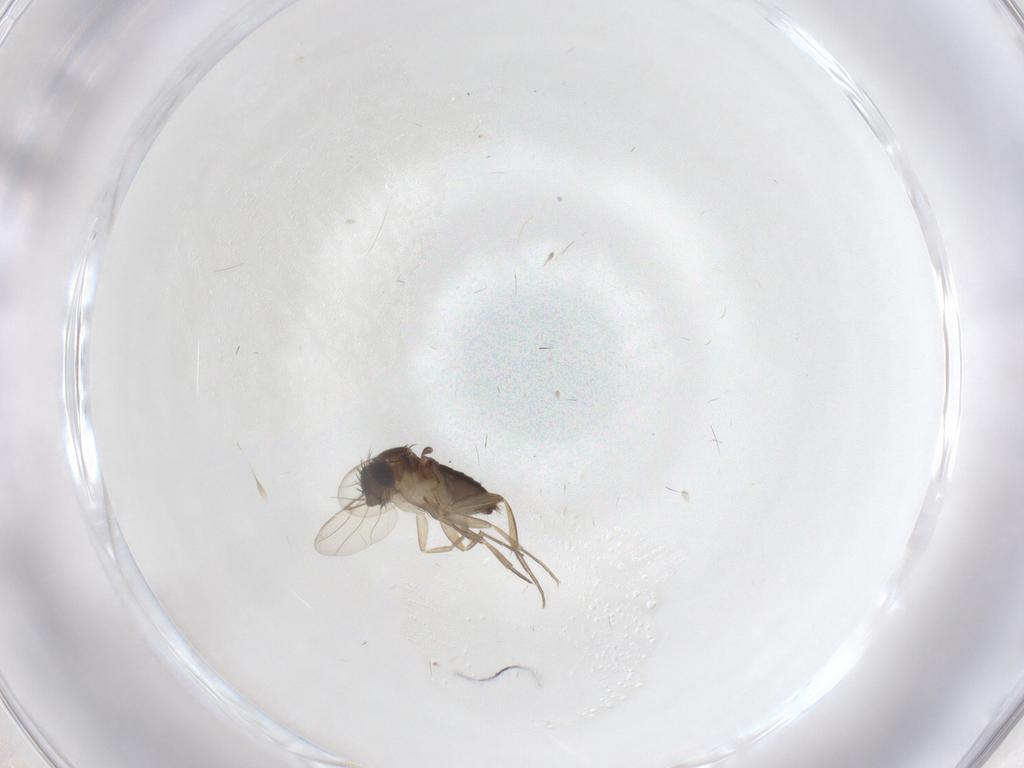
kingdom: Animalia
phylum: Arthropoda
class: Insecta
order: Diptera
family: Phoridae
